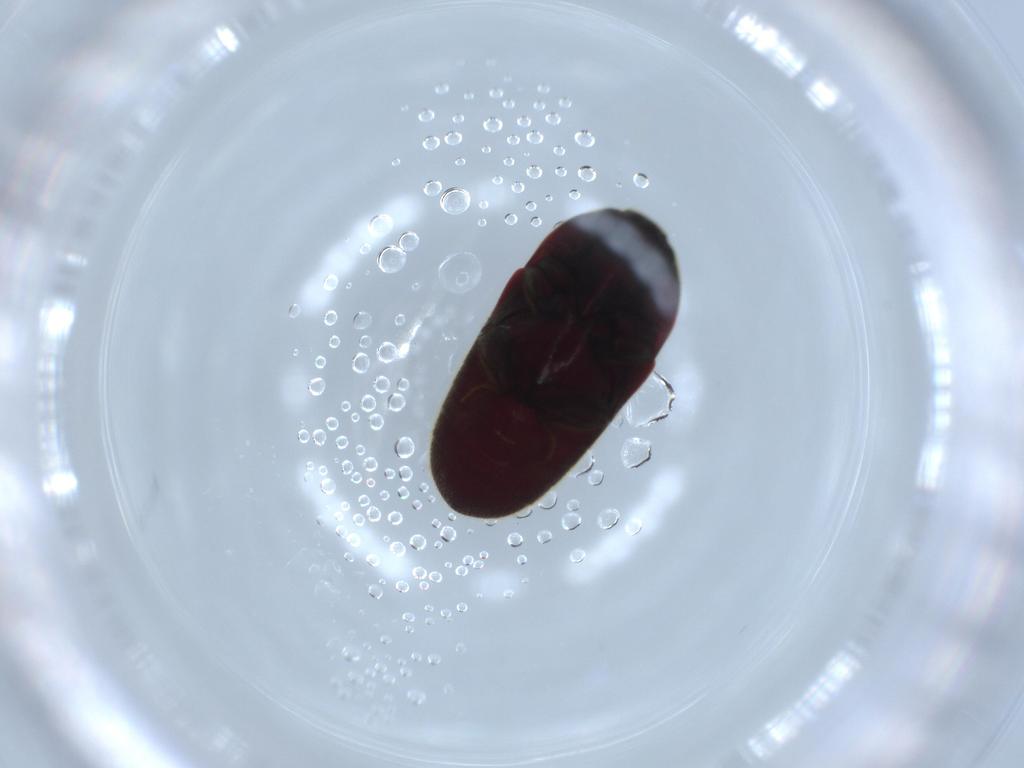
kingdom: Animalia
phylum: Arthropoda
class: Insecta
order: Coleoptera
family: Throscidae
